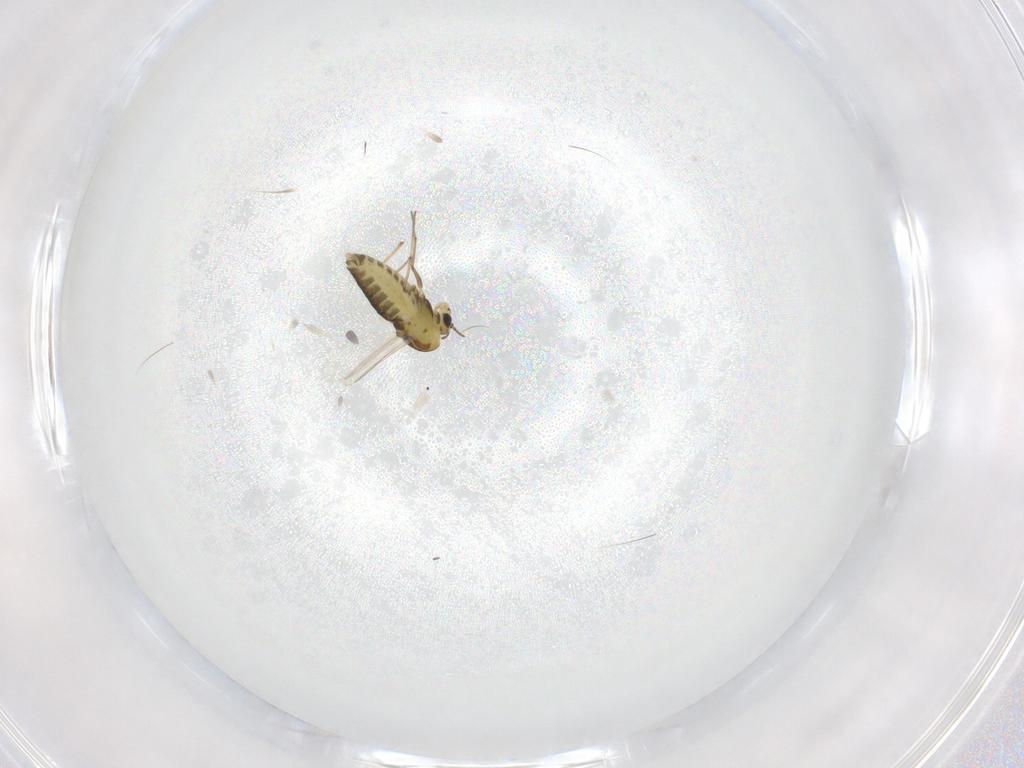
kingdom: Animalia
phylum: Arthropoda
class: Insecta
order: Diptera
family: Chironomidae
